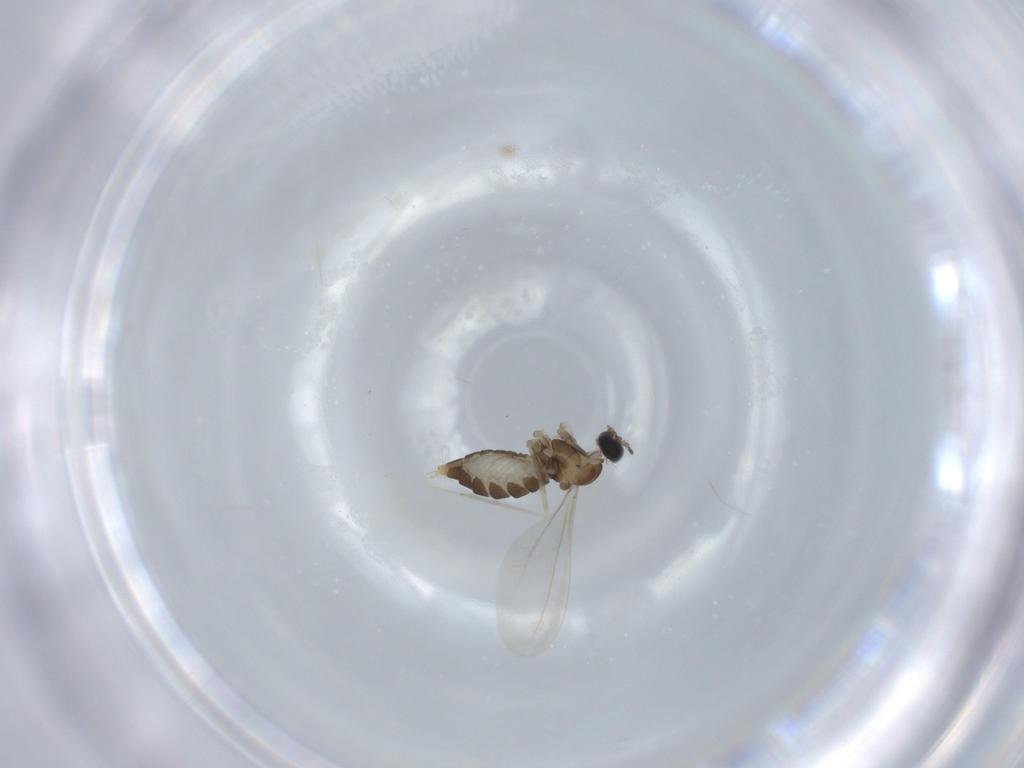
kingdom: Animalia
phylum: Arthropoda
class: Insecta
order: Diptera
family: Cecidomyiidae
